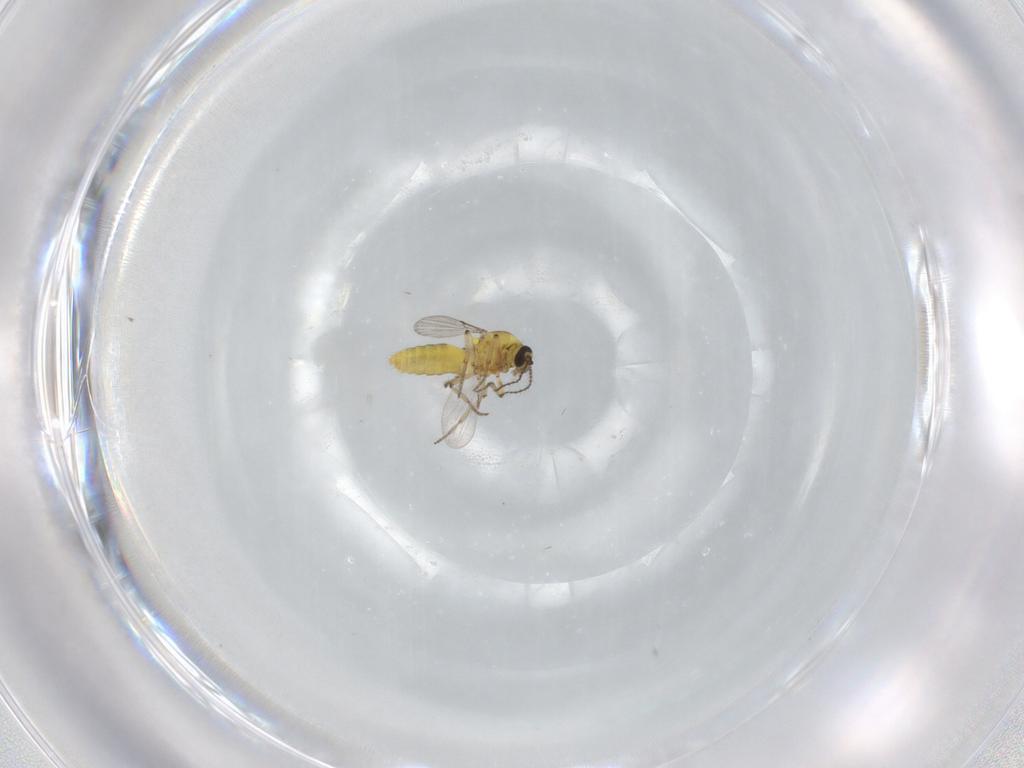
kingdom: Animalia
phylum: Arthropoda
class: Insecta
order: Diptera
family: Ceratopogonidae
